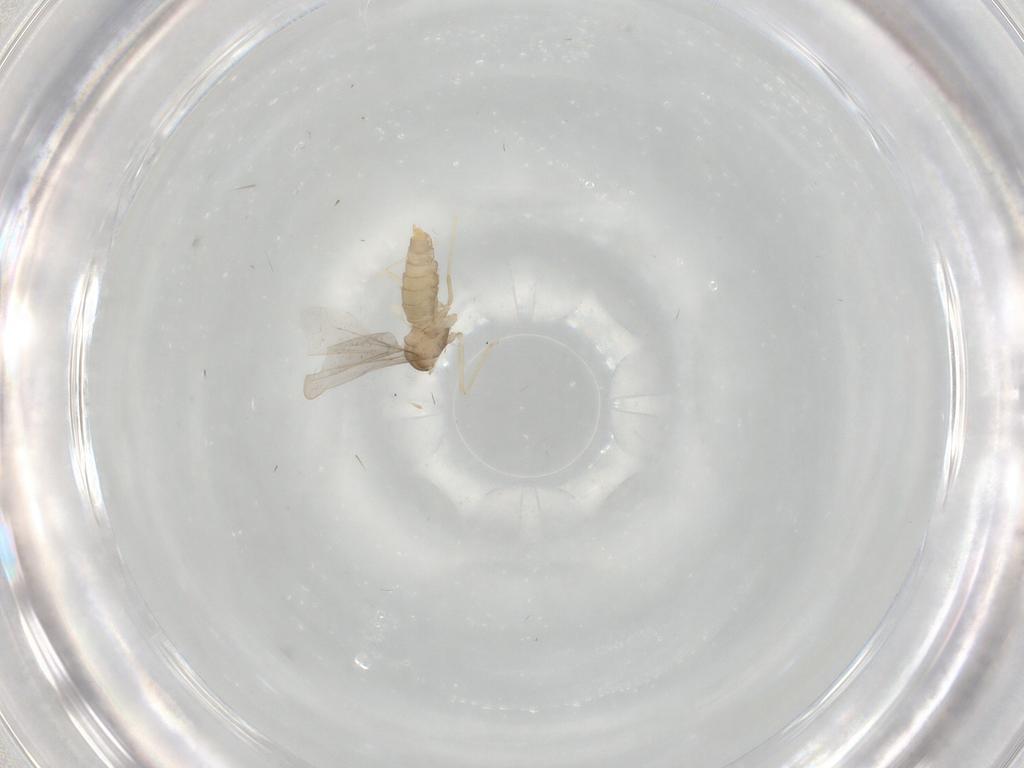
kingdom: Animalia
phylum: Arthropoda
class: Insecta
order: Diptera
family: Cecidomyiidae
